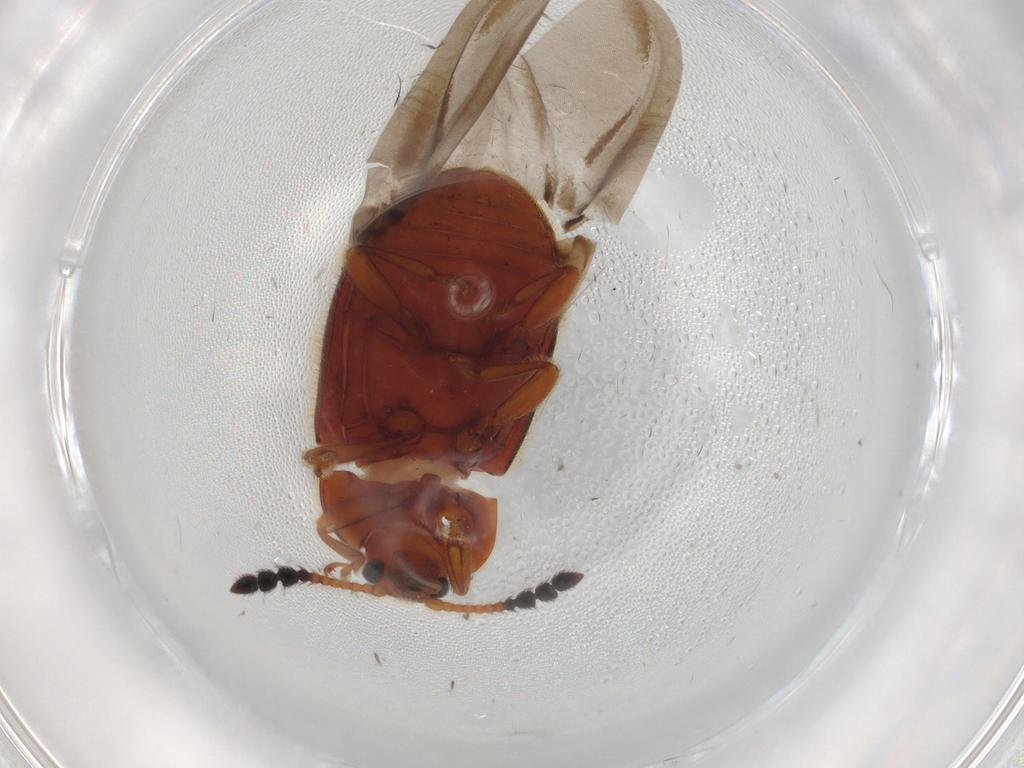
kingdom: Animalia
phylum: Arthropoda
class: Insecta
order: Coleoptera
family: Endomychidae
